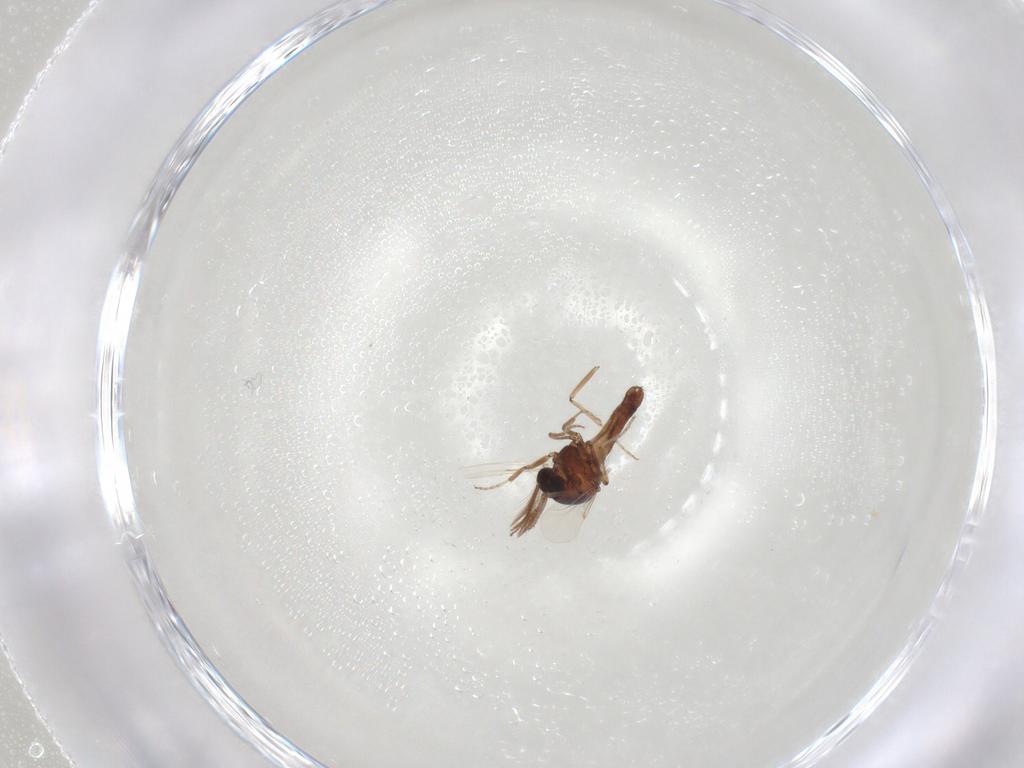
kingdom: Animalia
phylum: Arthropoda
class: Insecta
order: Diptera
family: Ceratopogonidae
